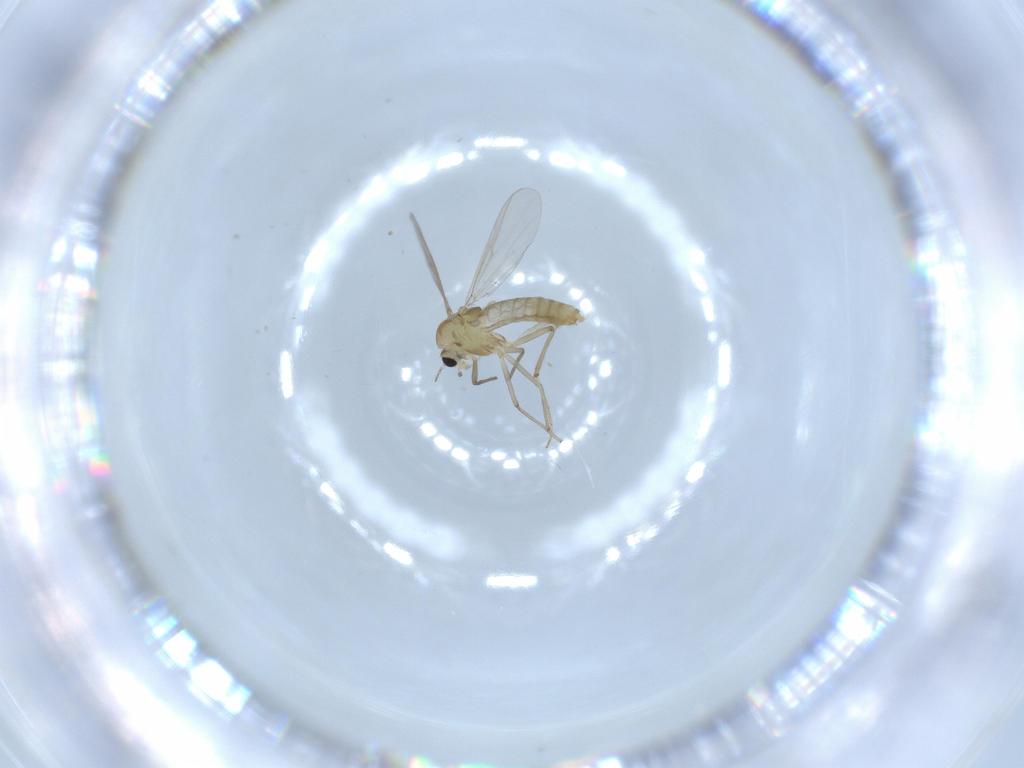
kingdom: Animalia
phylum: Arthropoda
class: Insecta
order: Diptera
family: Chironomidae
